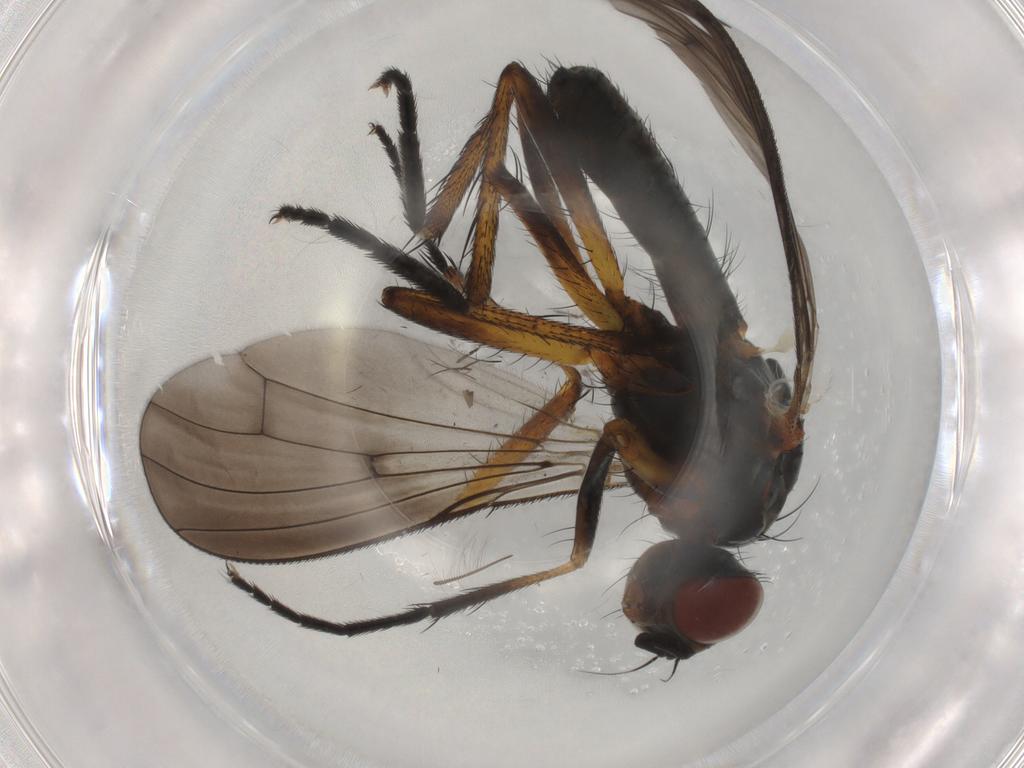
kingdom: Animalia
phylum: Arthropoda
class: Insecta
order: Diptera
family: Anthomyiidae
